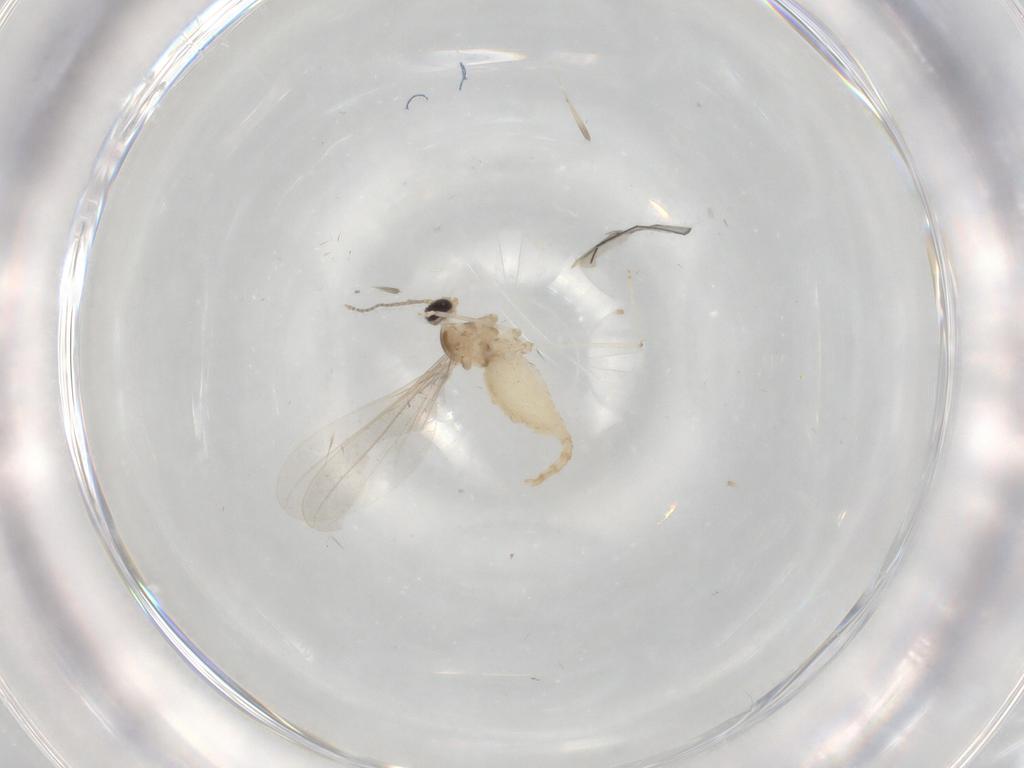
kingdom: Animalia
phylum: Arthropoda
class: Insecta
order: Diptera
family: Cecidomyiidae
